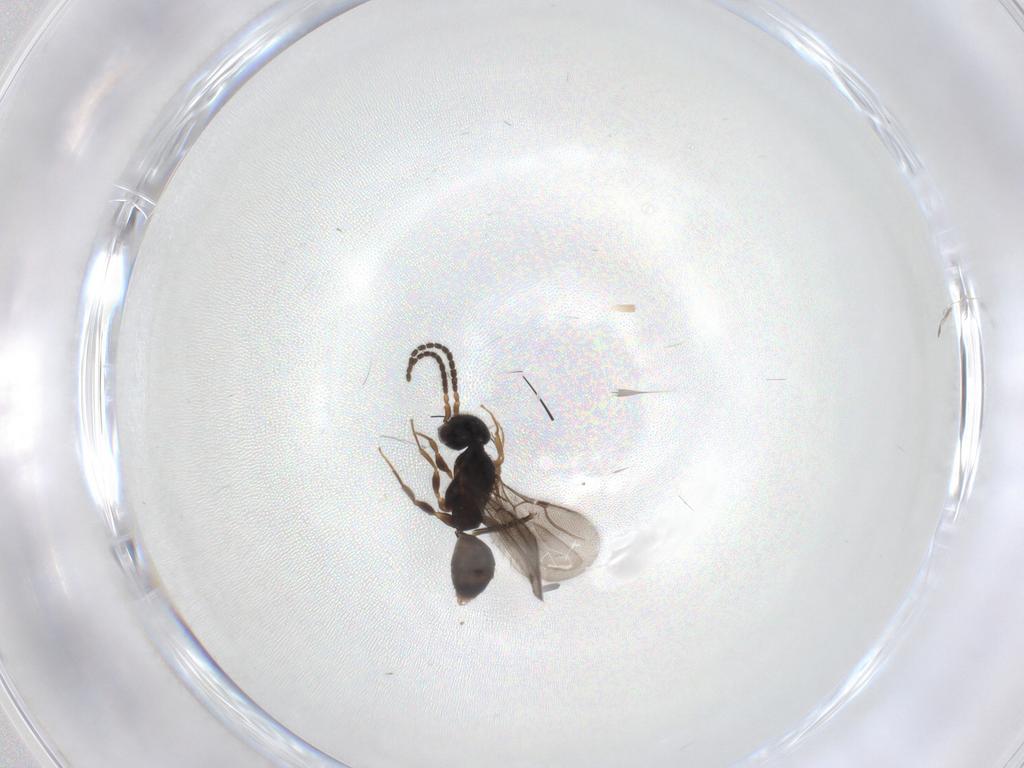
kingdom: Animalia
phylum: Arthropoda
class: Insecta
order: Hymenoptera
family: Bethylidae
